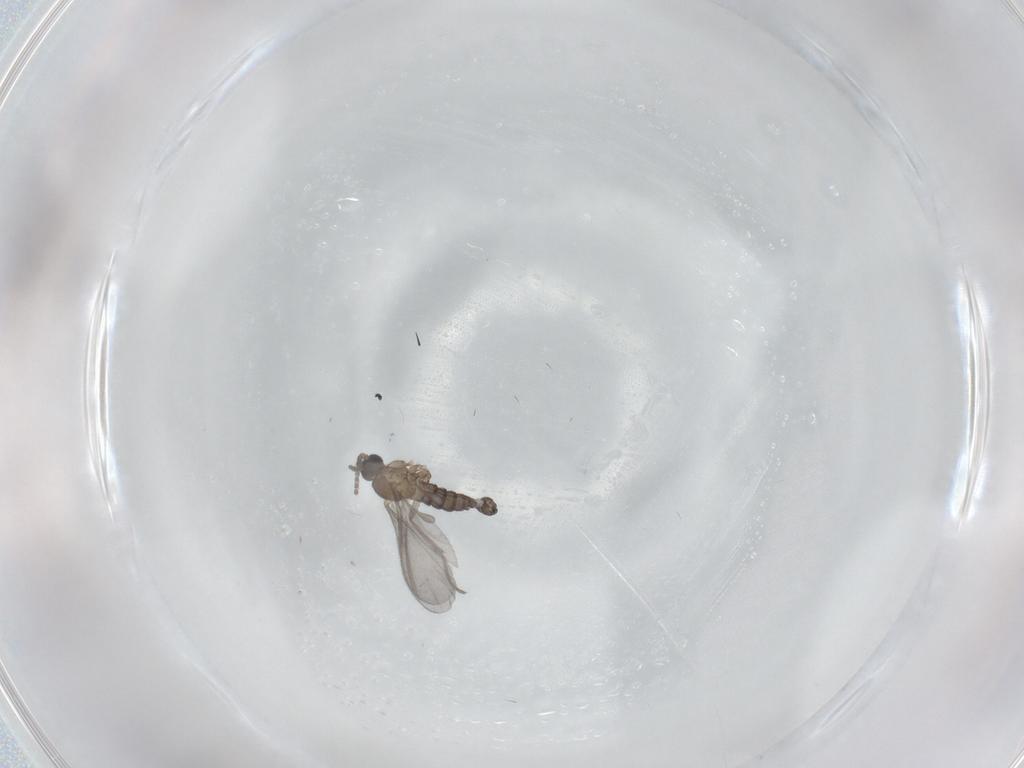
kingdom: Animalia
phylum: Arthropoda
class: Insecta
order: Diptera
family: Sciaridae
